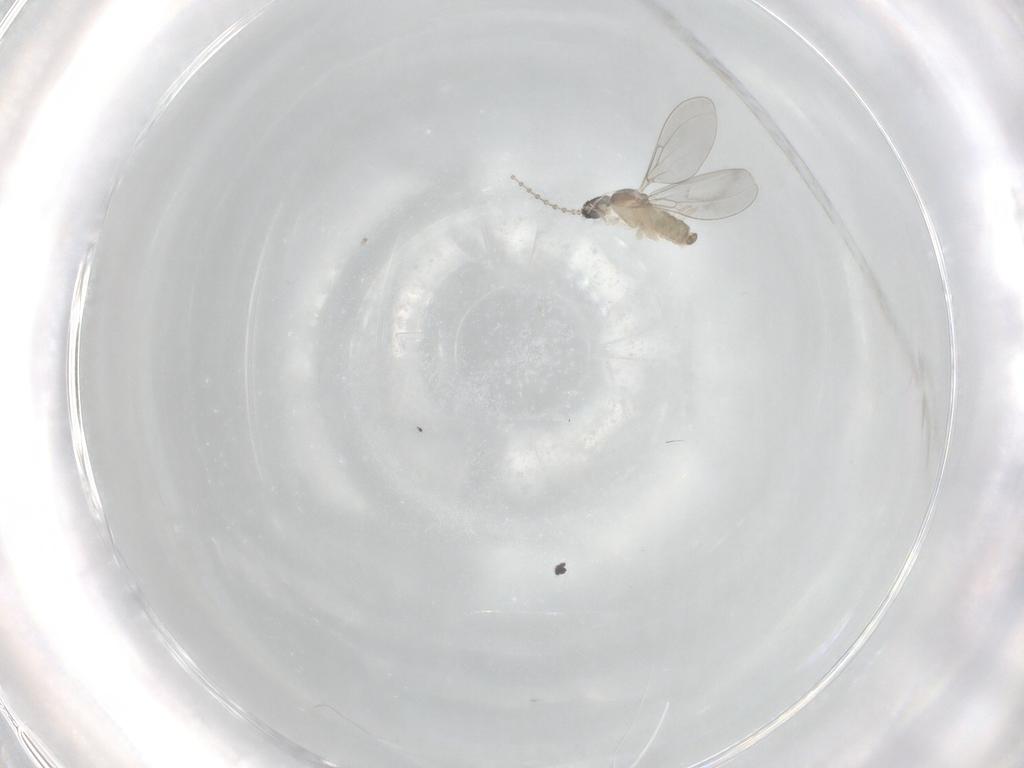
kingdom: Animalia
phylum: Arthropoda
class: Insecta
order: Diptera
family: Cecidomyiidae
